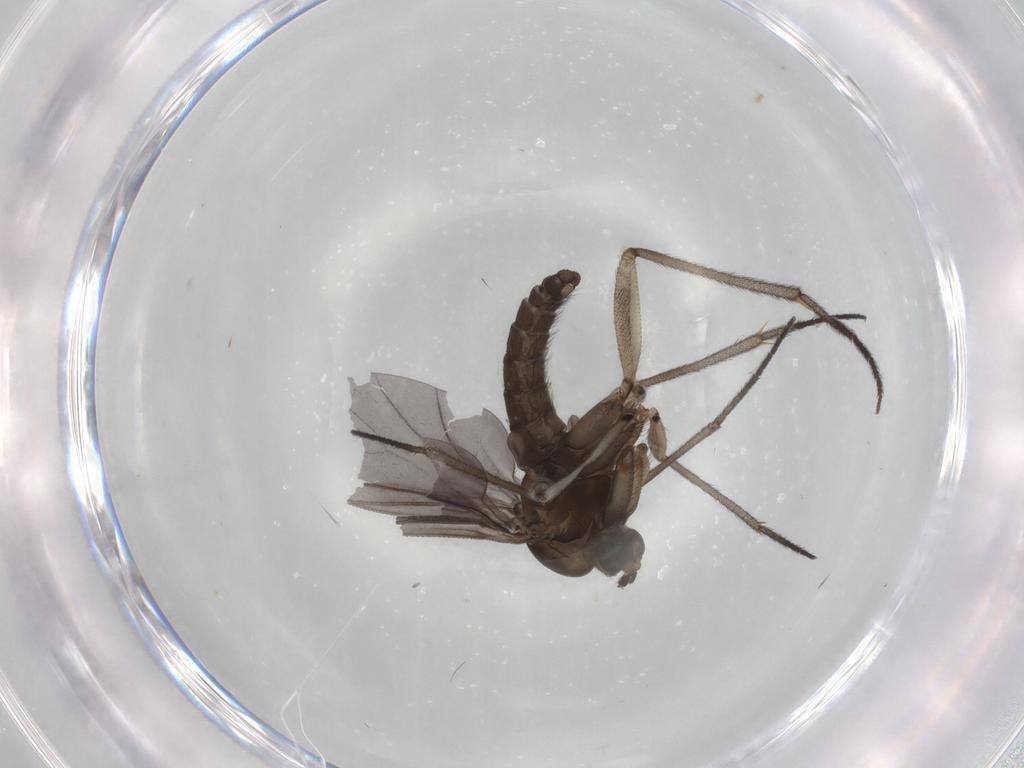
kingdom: Animalia
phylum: Arthropoda
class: Insecta
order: Diptera
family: Sciaridae
